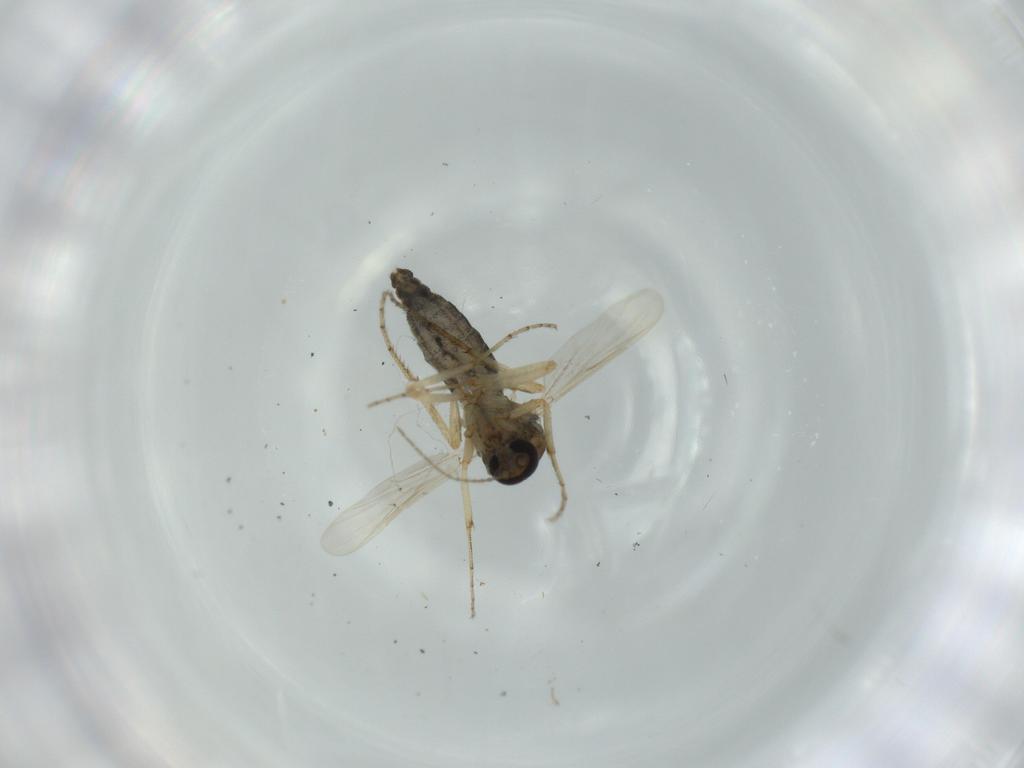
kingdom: Animalia
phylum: Arthropoda
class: Insecta
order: Diptera
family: Ceratopogonidae
